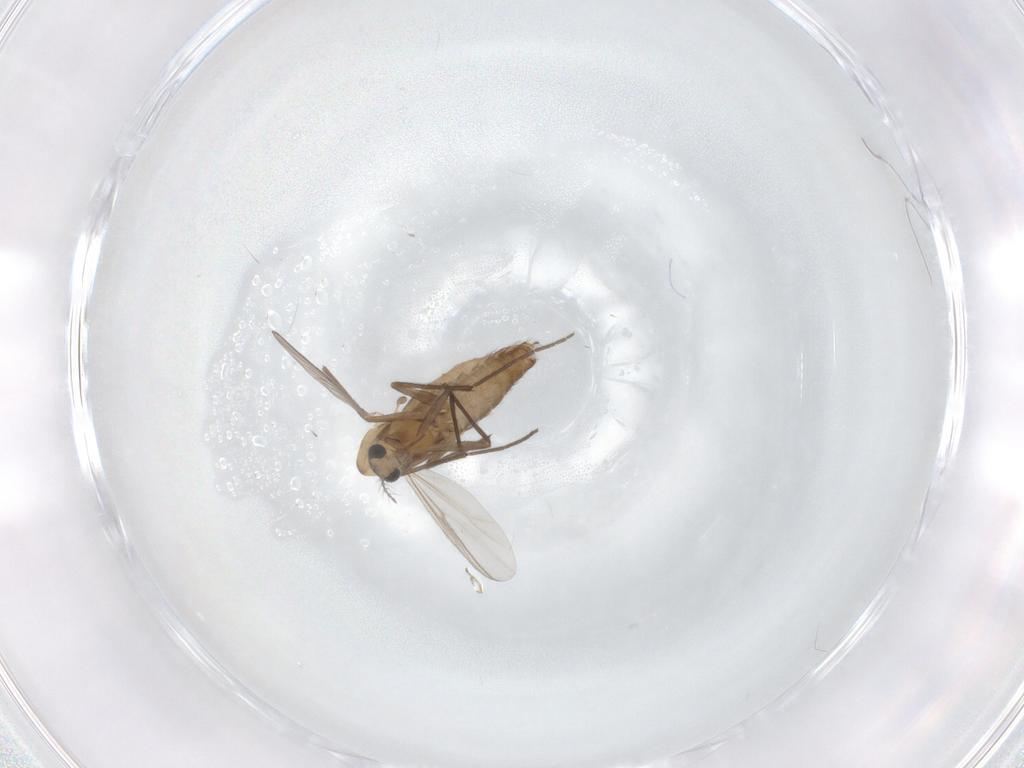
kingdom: Animalia
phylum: Arthropoda
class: Insecta
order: Diptera
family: Chironomidae
